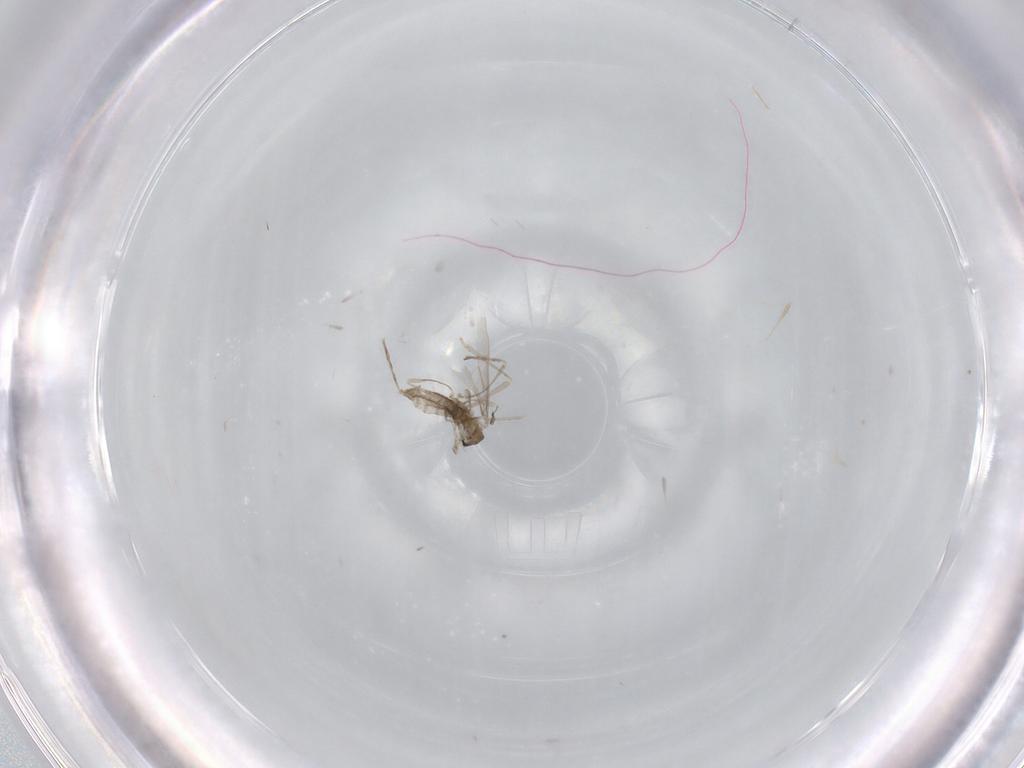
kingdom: Animalia
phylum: Arthropoda
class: Insecta
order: Diptera
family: Cecidomyiidae
